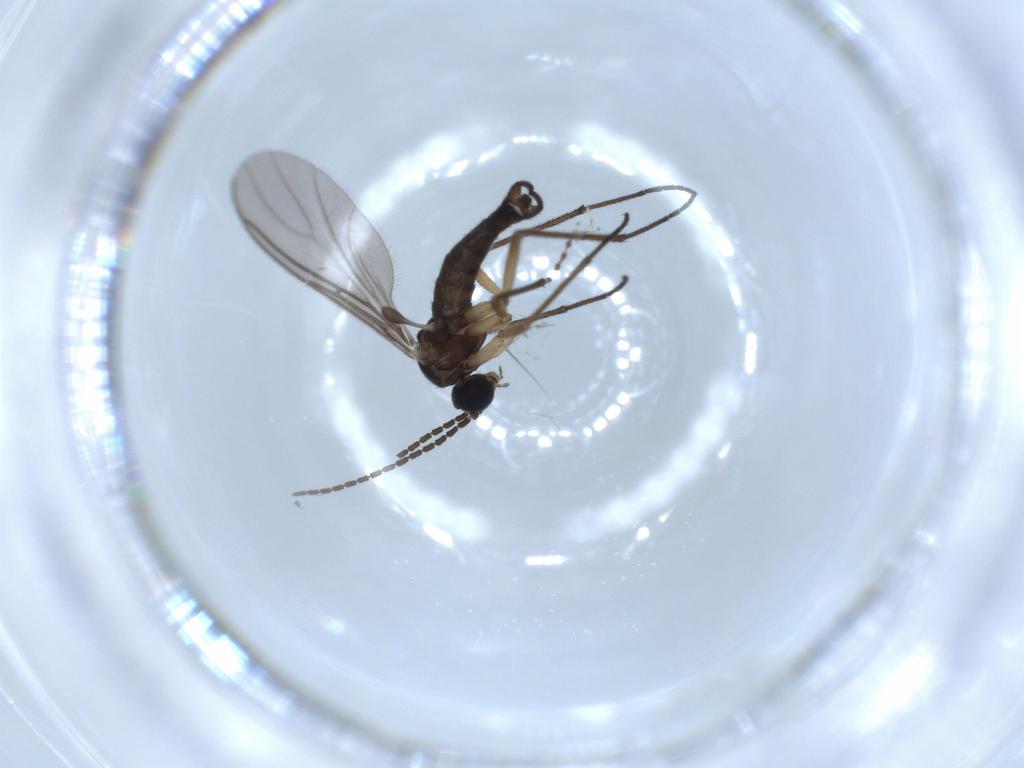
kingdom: Animalia
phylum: Arthropoda
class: Insecta
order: Diptera
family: Sciaridae
